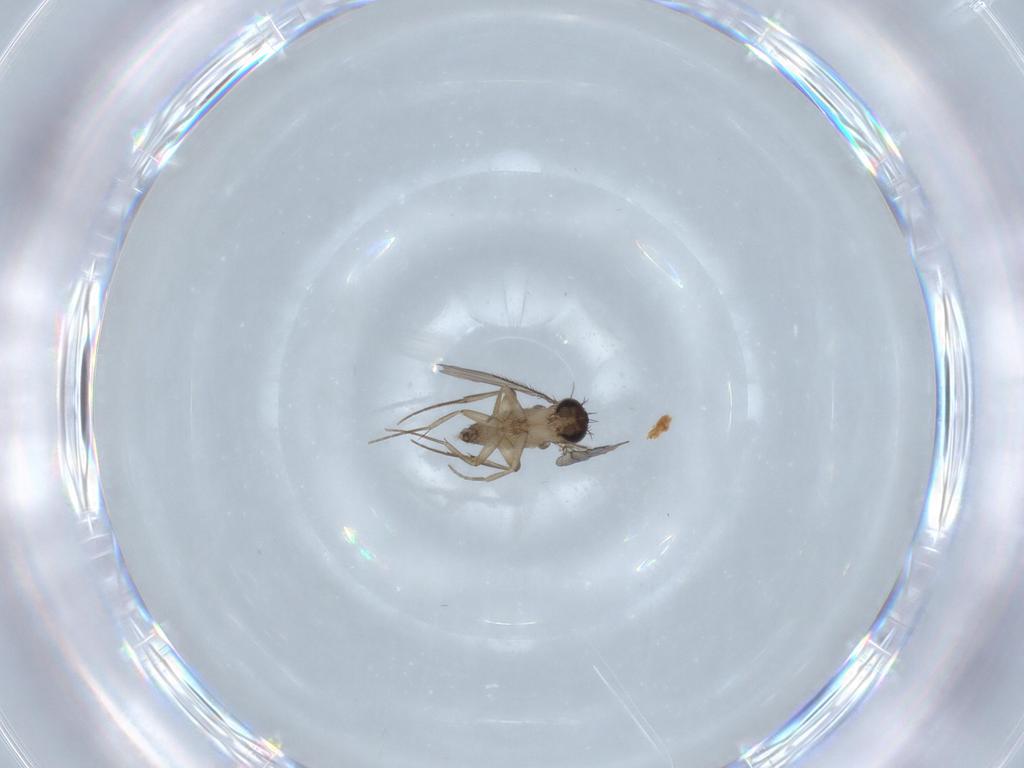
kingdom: Animalia
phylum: Arthropoda
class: Insecta
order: Diptera
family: Phoridae
